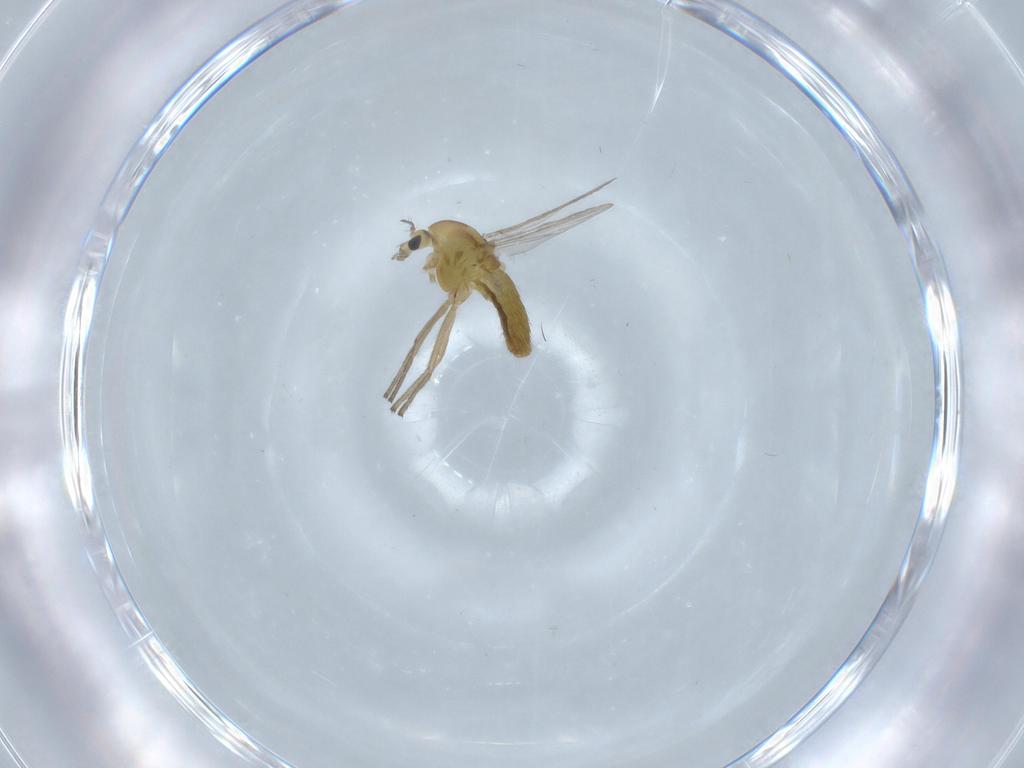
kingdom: Animalia
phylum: Arthropoda
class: Insecta
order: Diptera
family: Chironomidae
